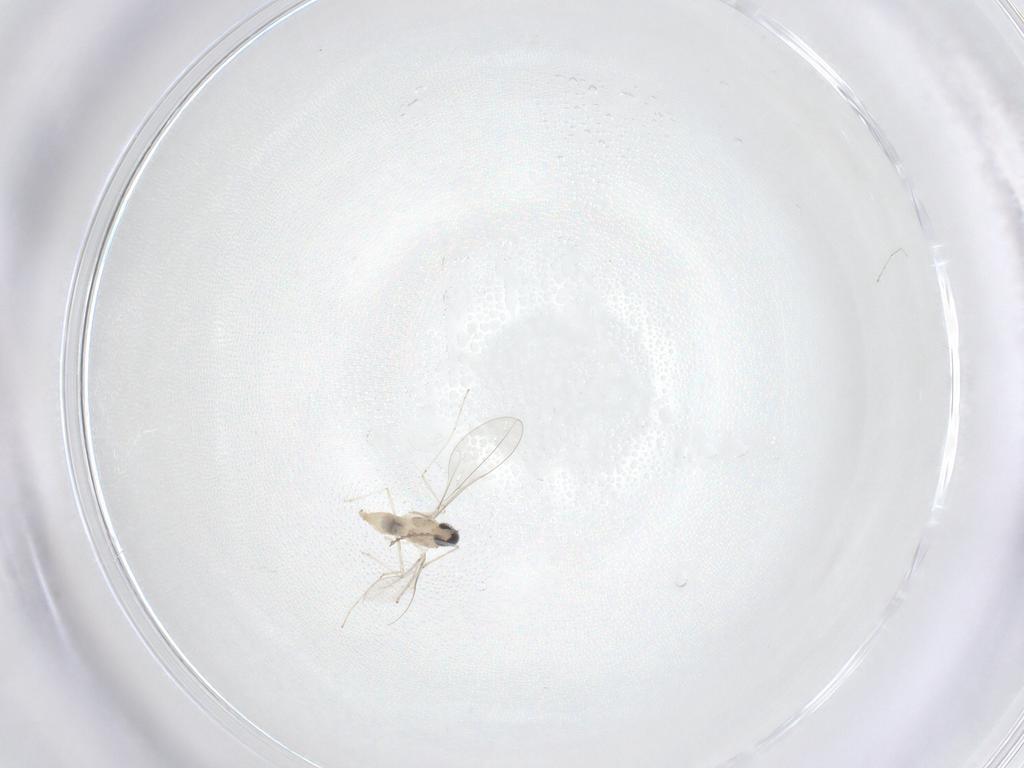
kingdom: Animalia
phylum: Arthropoda
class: Insecta
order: Diptera
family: Cecidomyiidae
